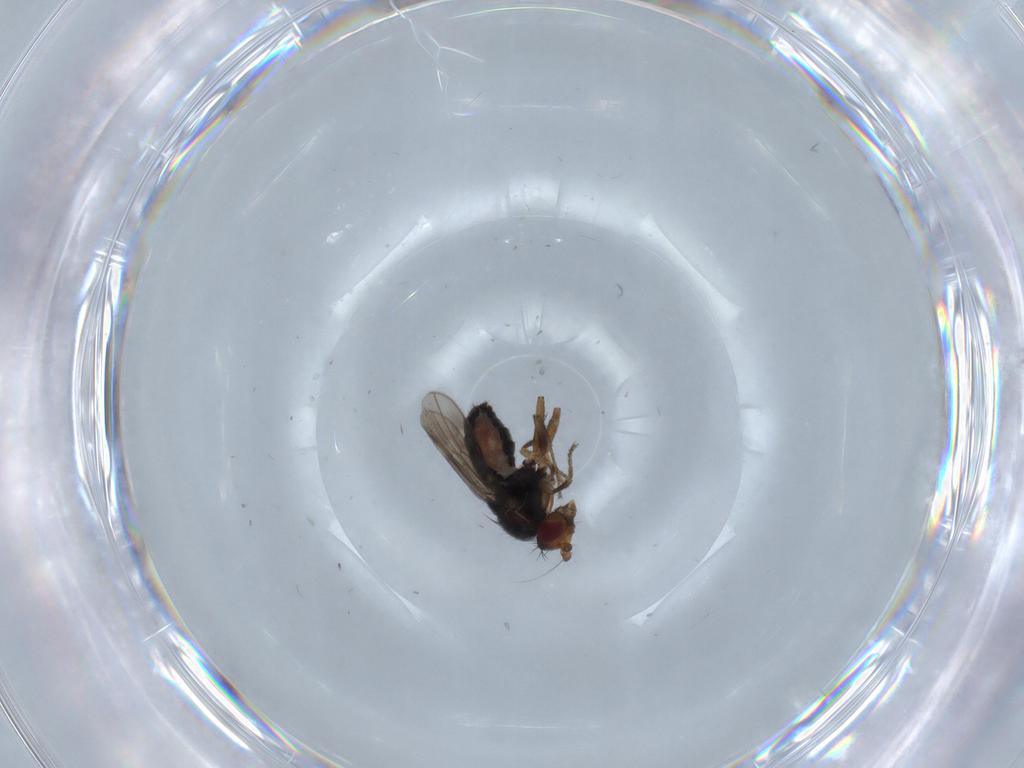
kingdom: Animalia
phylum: Arthropoda
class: Insecta
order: Diptera
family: Sphaeroceridae
